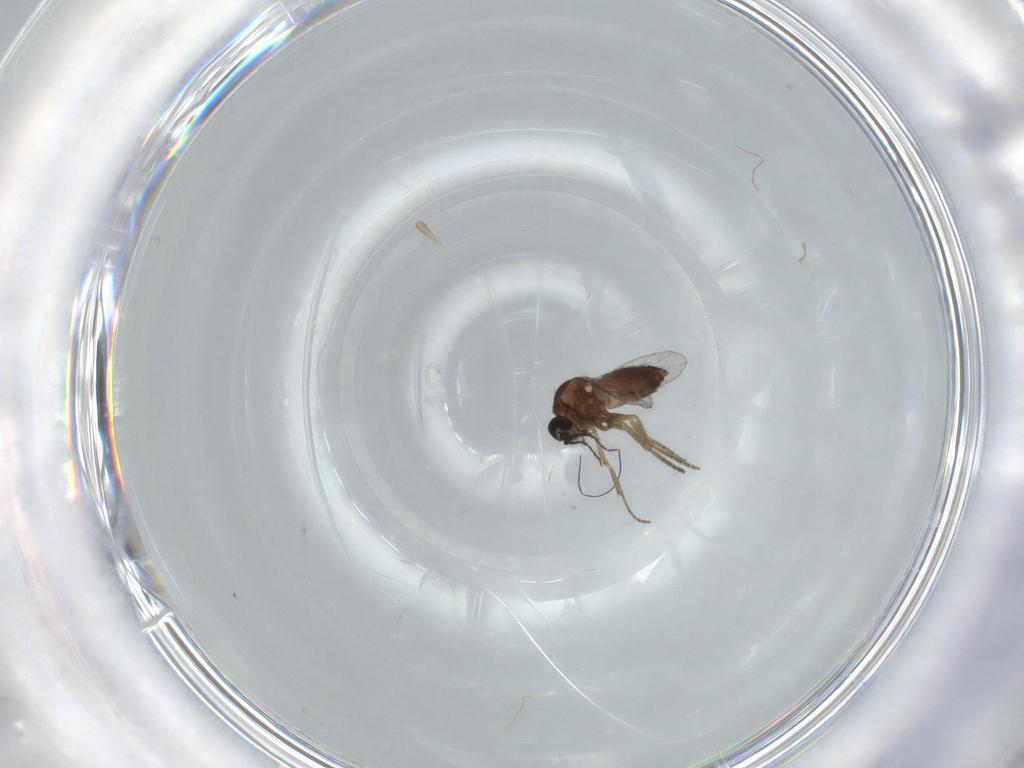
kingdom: Animalia
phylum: Arthropoda
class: Insecta
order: Diptera
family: Ceratopogonidae
